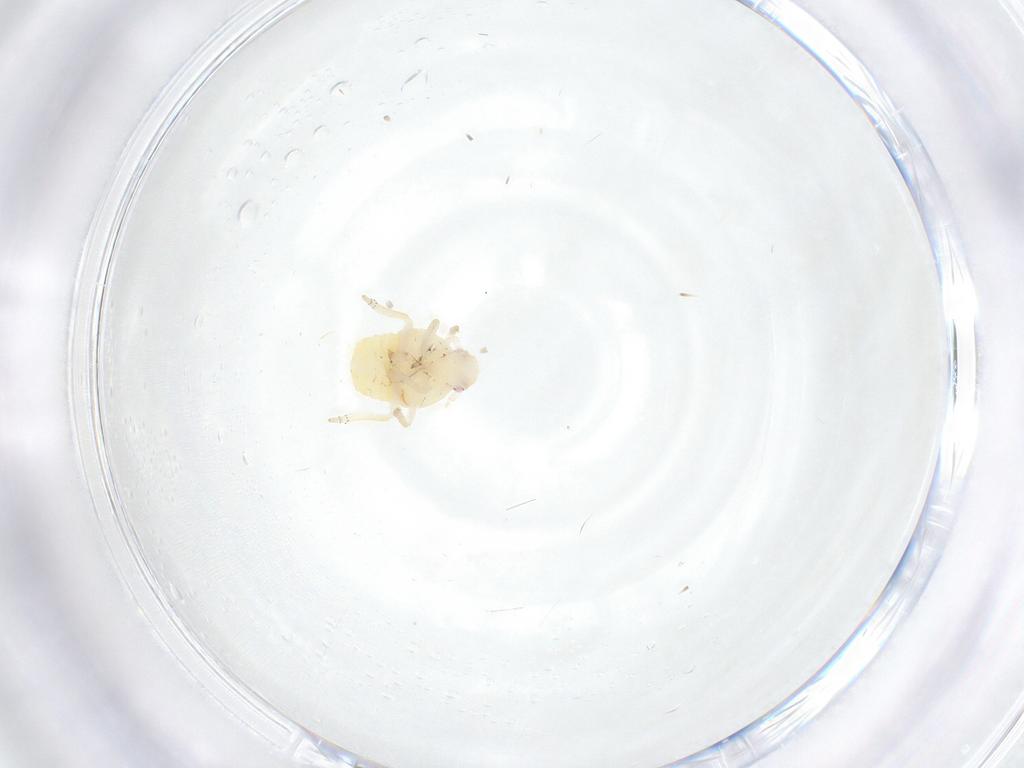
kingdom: Animalia
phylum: Arthropoda
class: Insecta
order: Hemiptera
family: Fulgoroidea_incertae_sedis
